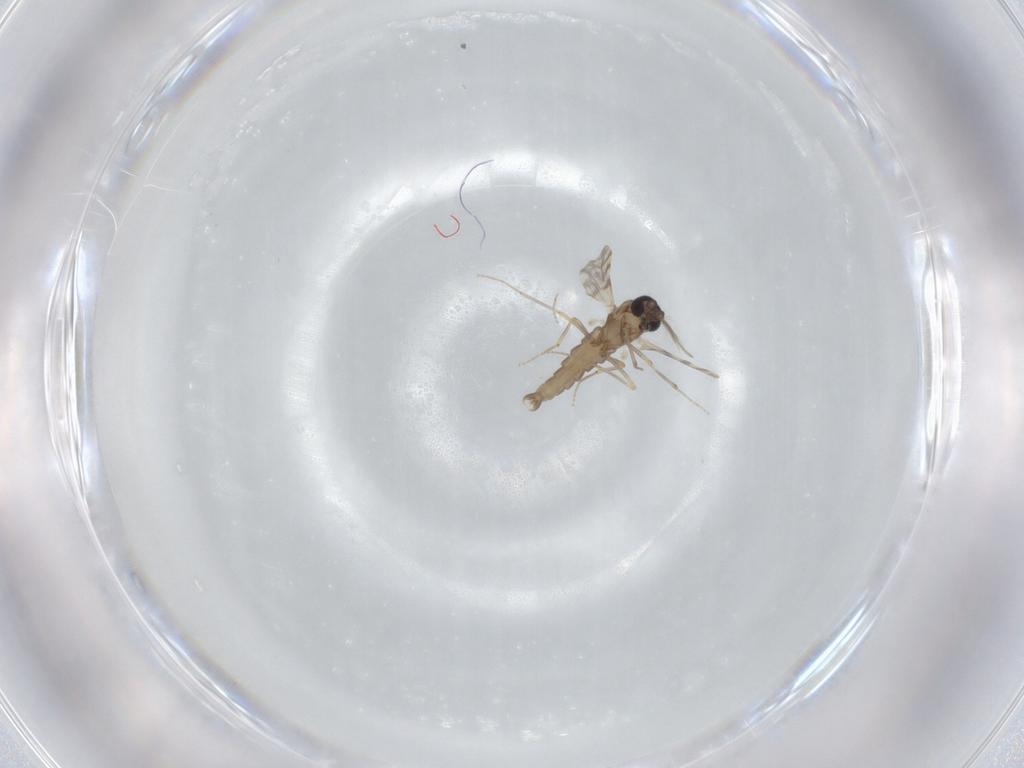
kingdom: Animalia
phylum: Arthropoda
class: Insecta
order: Diptera
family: Ceratopogonidae
